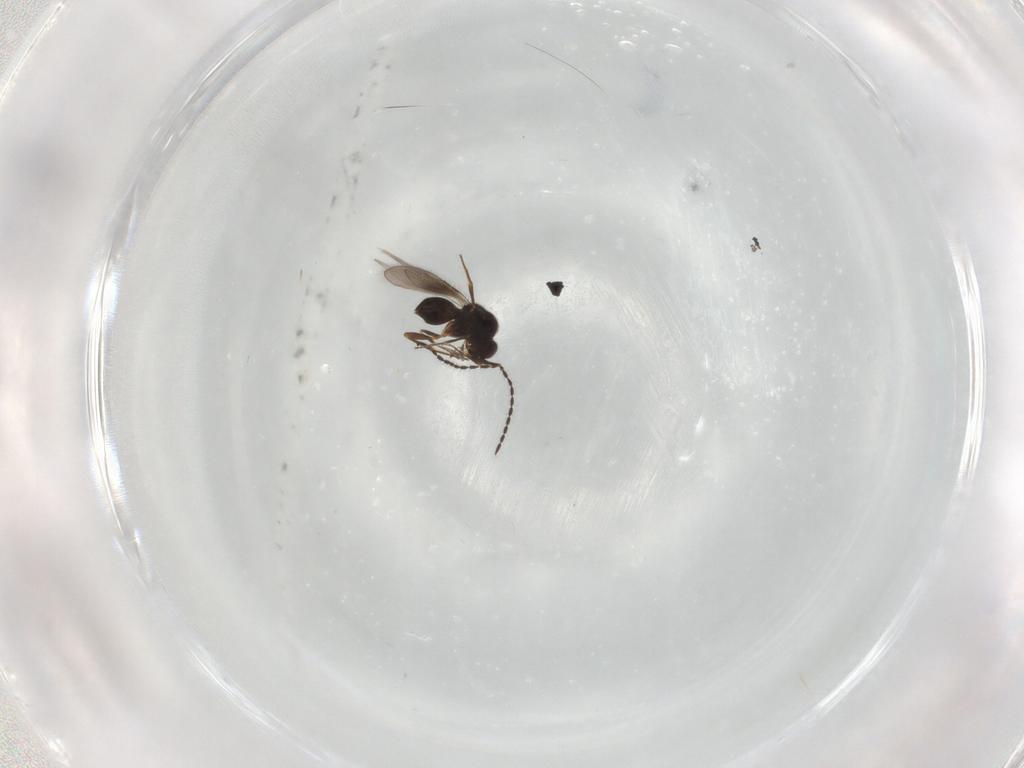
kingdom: Animalia
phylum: Arthropoda
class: Insecta
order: Hymenoptera
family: Ceraphronidae
